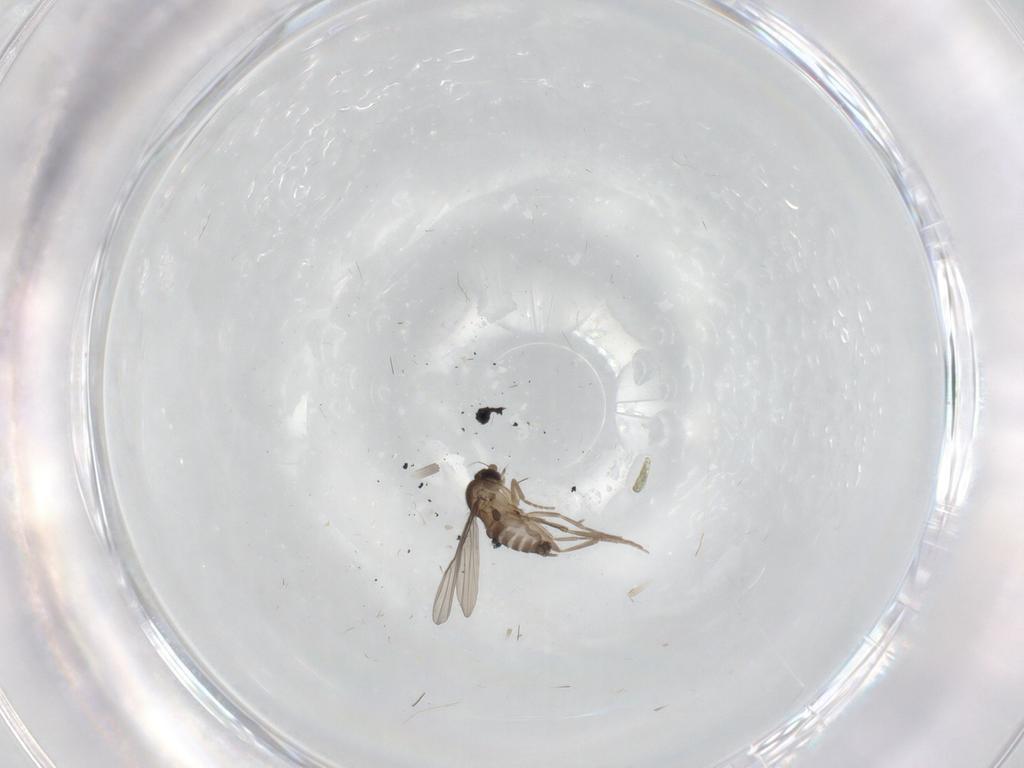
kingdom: Animalia
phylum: Arthropoda
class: Insecta
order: Diptera
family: Phoridae
